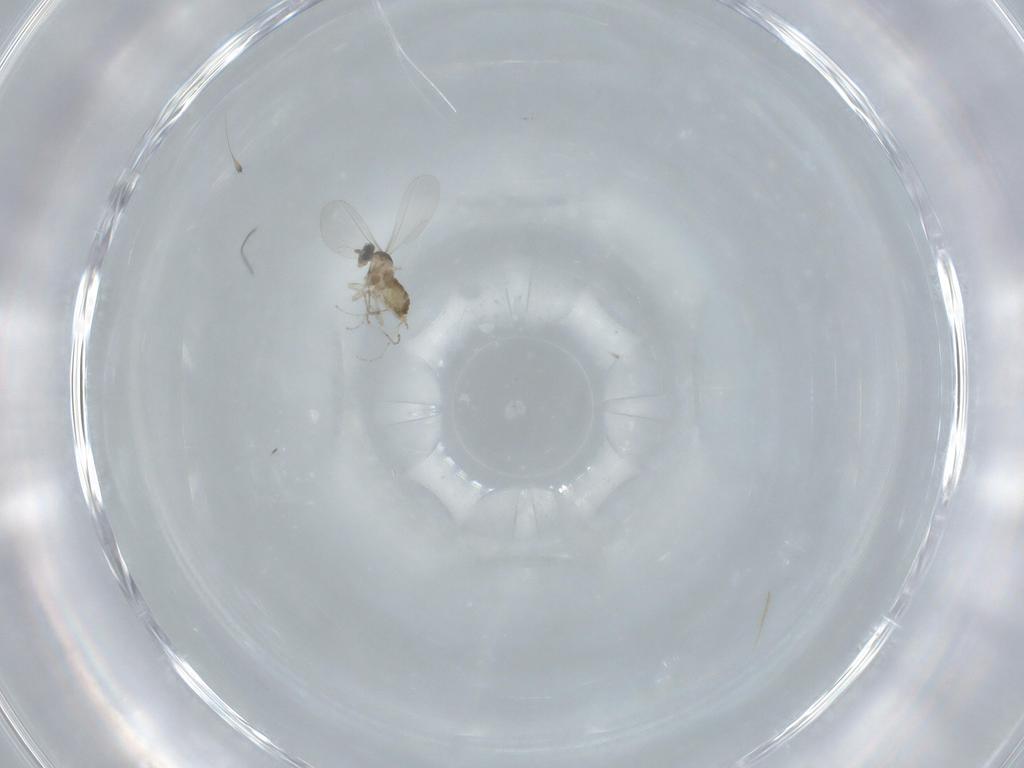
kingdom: Animalia
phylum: Arthropoda
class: Insecta
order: Diptera
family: Cecidomyiidae
